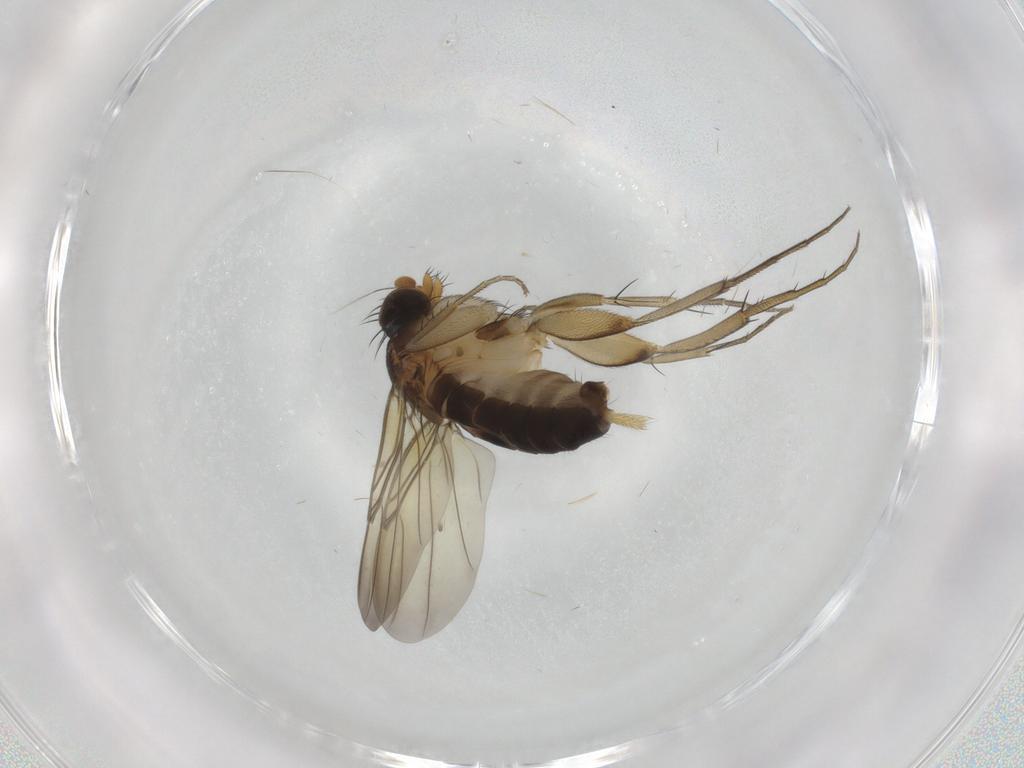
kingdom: Animalia
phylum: Arthropoda
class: Insecta
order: Diptera
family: Phoridae
